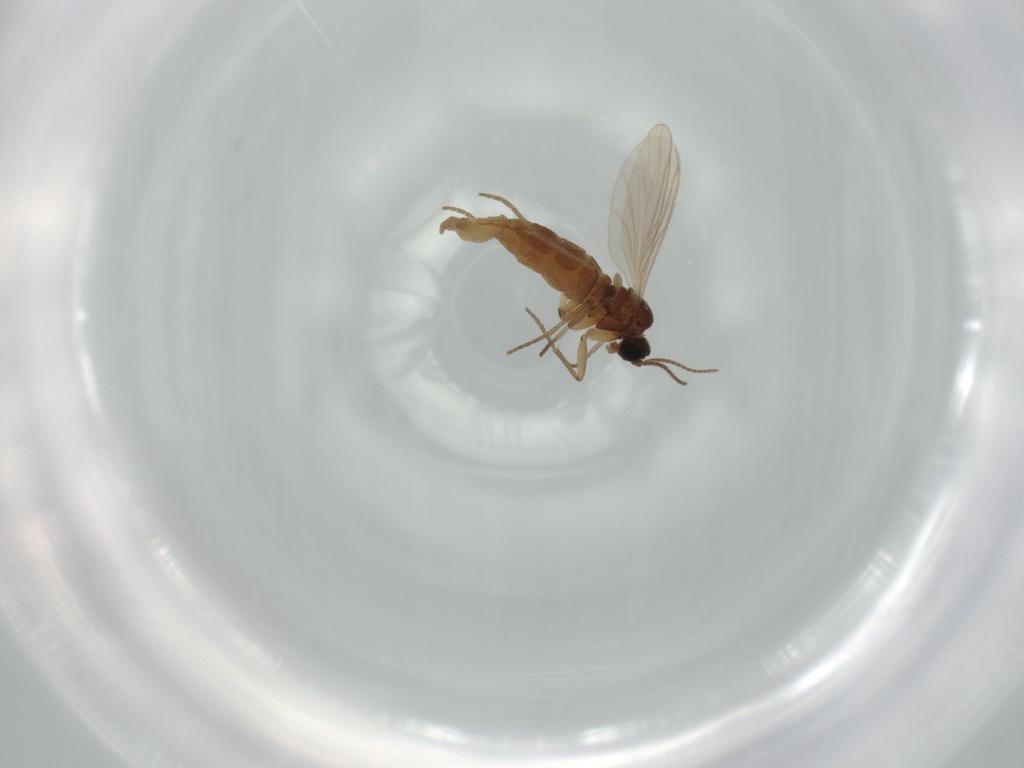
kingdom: Animalia
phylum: Arthropoda
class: Insecta
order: Diptera
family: Sciaridae
